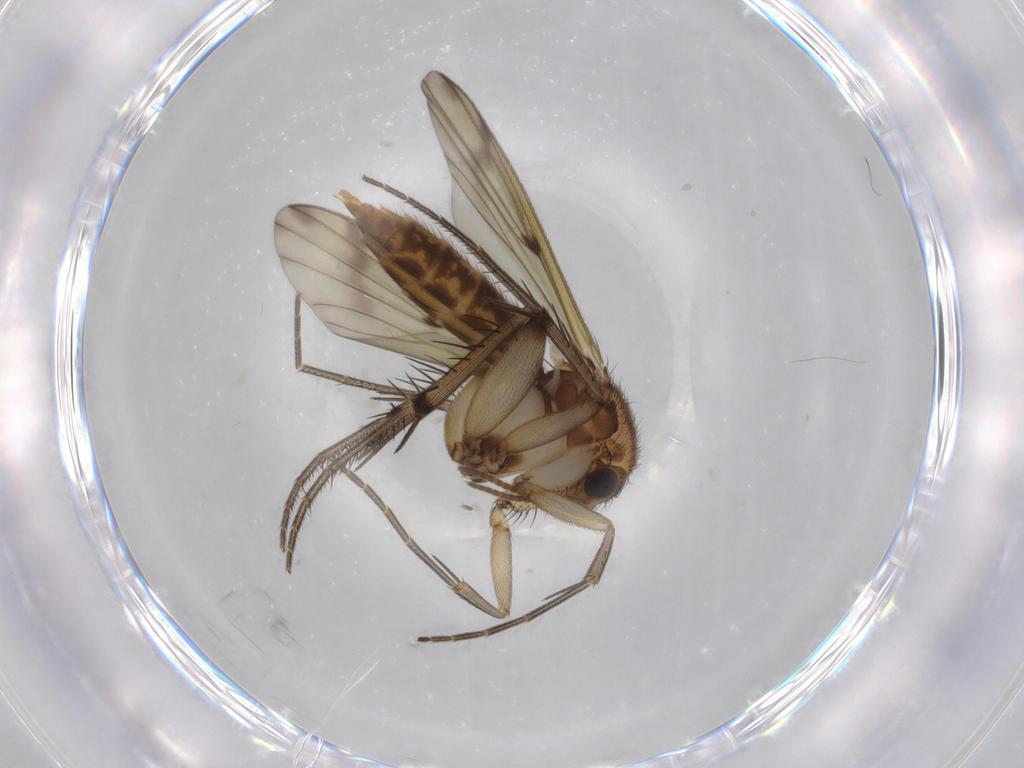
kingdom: Animalia
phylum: Arthropoda
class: Insecta
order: Diptera
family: Mycetophilidae
